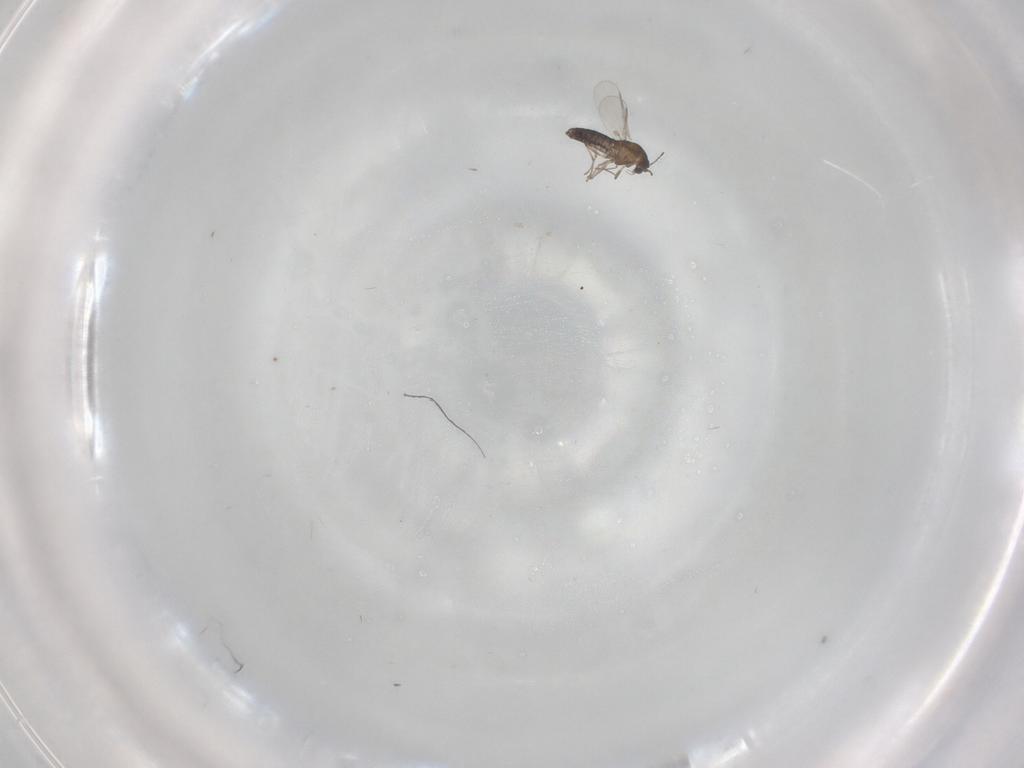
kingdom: Animalia
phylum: Arthropoda
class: Insecta
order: Diptera
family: Chironomidae
